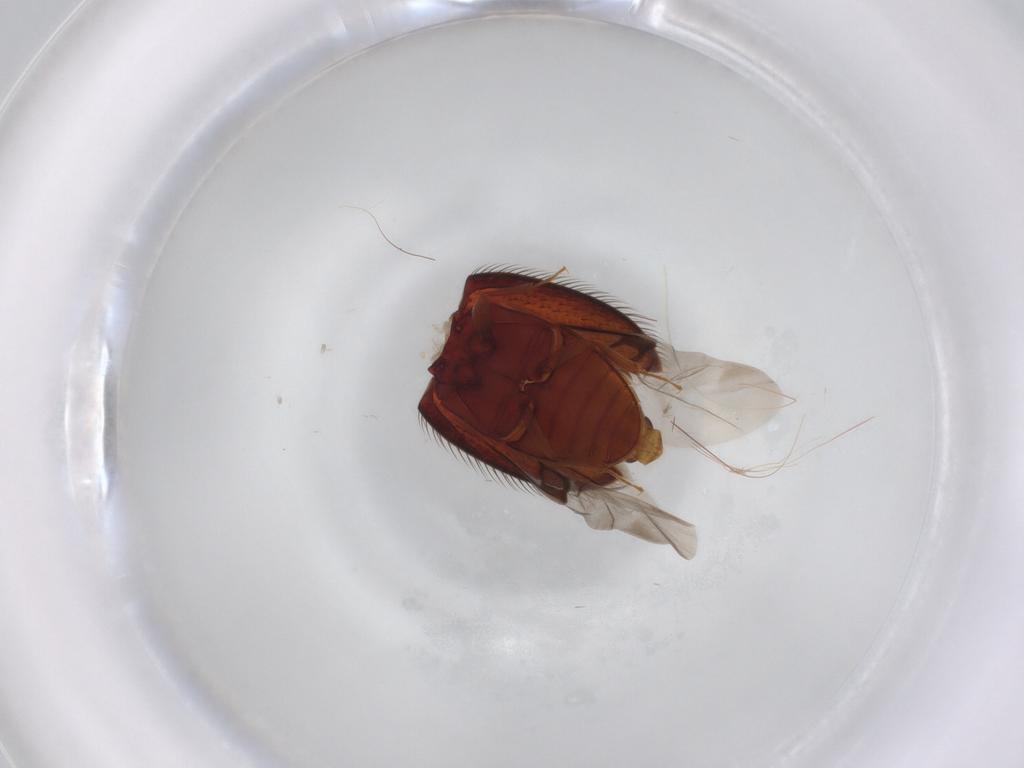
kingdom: Animalia
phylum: Arthropoda
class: Insecta
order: Coleoptera
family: Biphyllidae
